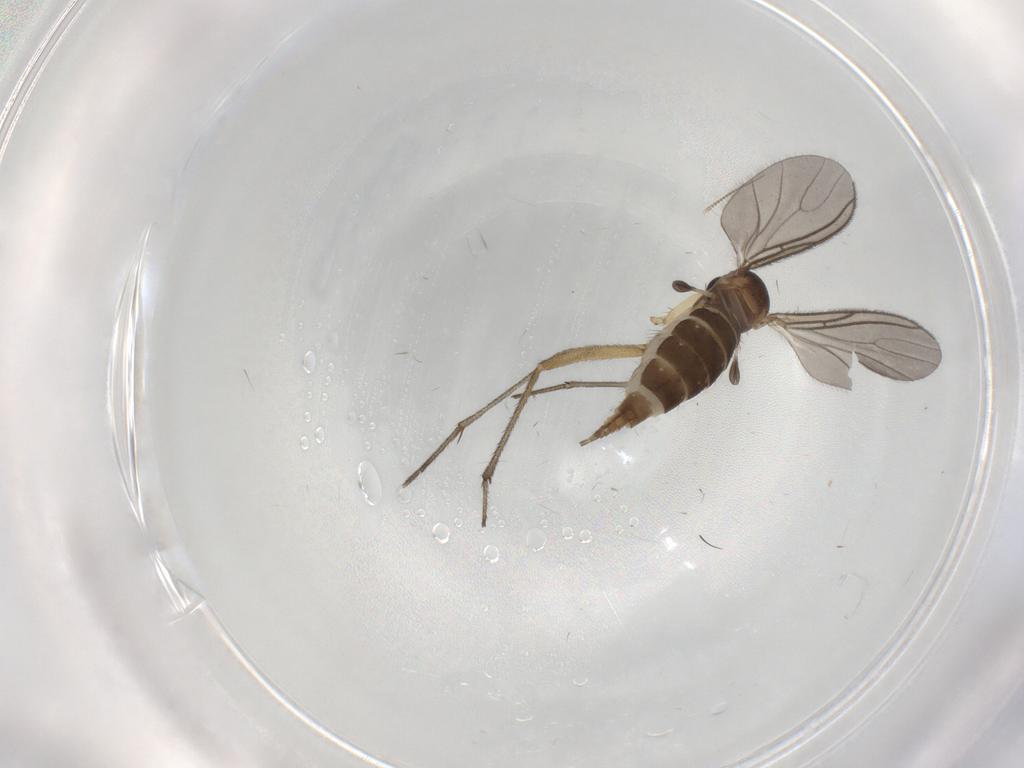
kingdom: Animalia
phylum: Arthropoda
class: Insecta
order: Diptera
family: Sciaridae
